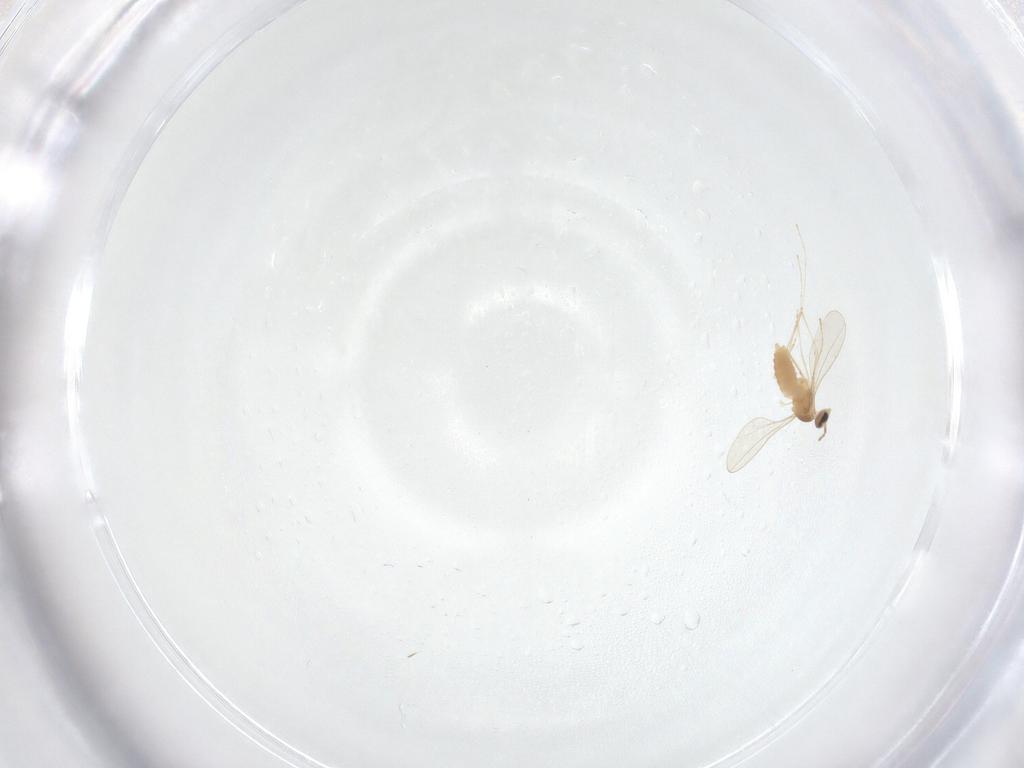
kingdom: Animalia
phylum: Arthropoda
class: Insecta
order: Diptera
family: Cecidomyiidae
